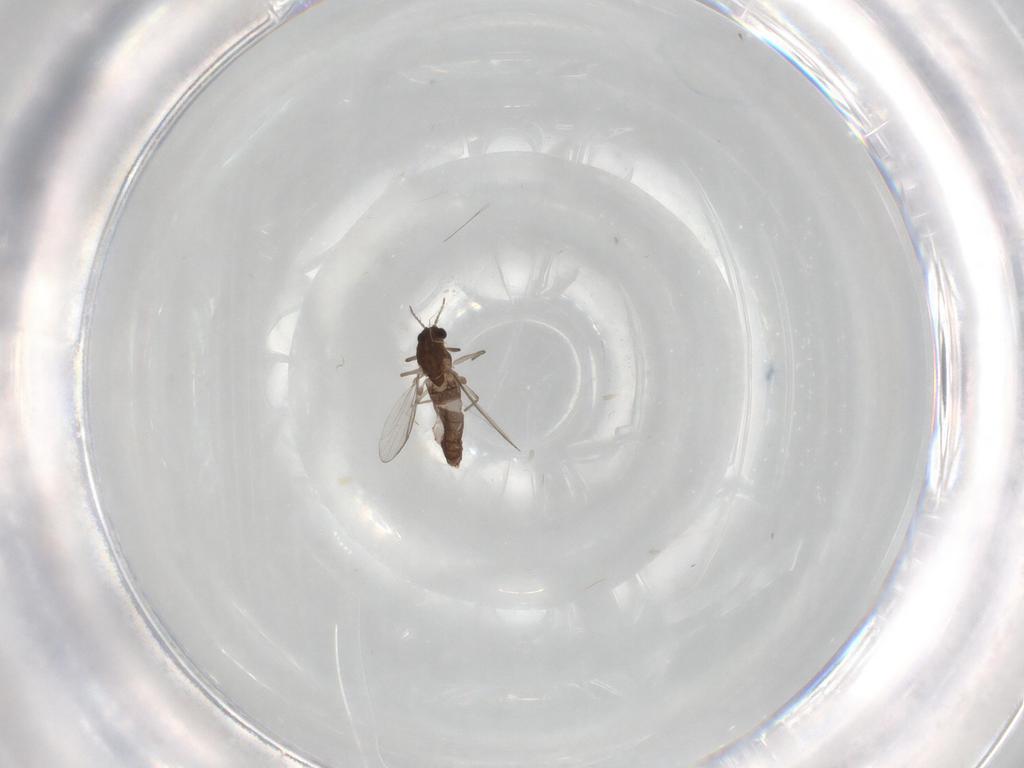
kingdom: Animalia
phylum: Arthropoda
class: Insecta
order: Diptera
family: Chironomidae
